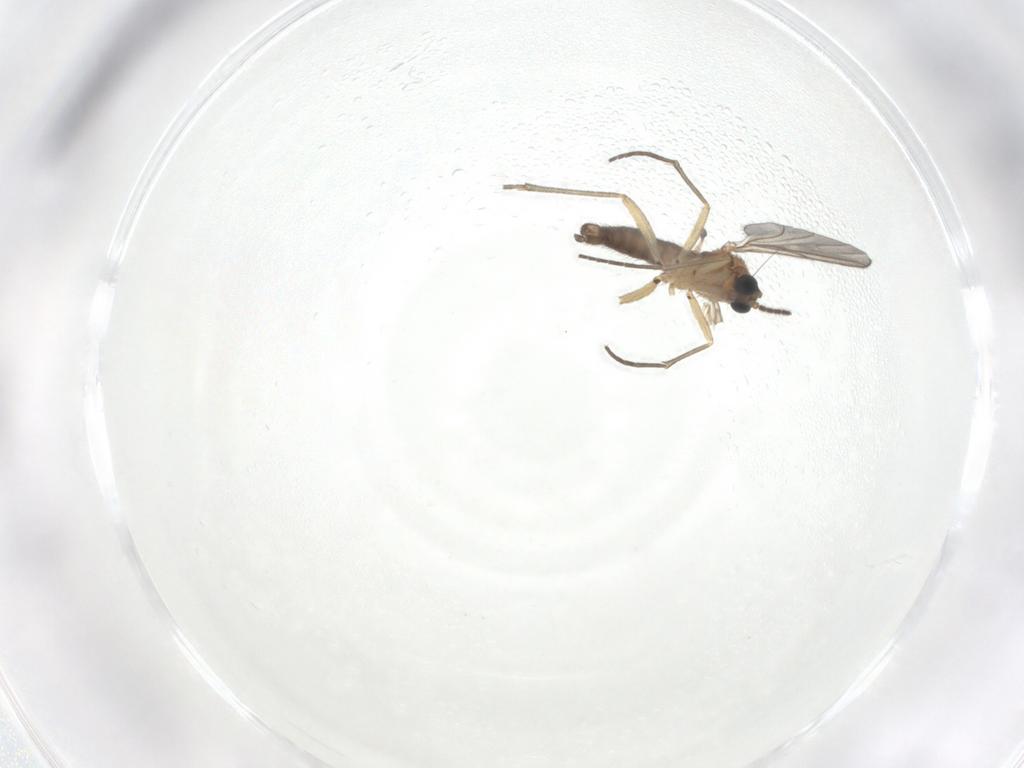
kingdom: Animalia
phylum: Arthropoda
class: Insecta
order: Diptera
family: Sciaridae
